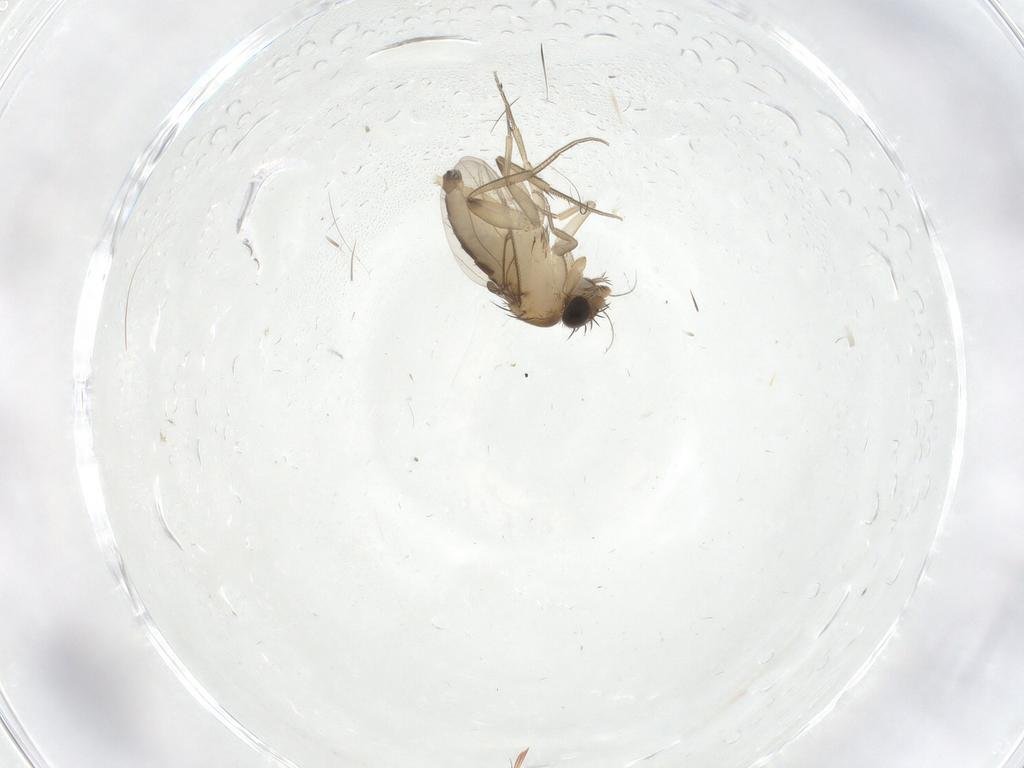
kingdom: Animalia
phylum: Arthropoda
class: Insecta
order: Diptera
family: Phoridae
